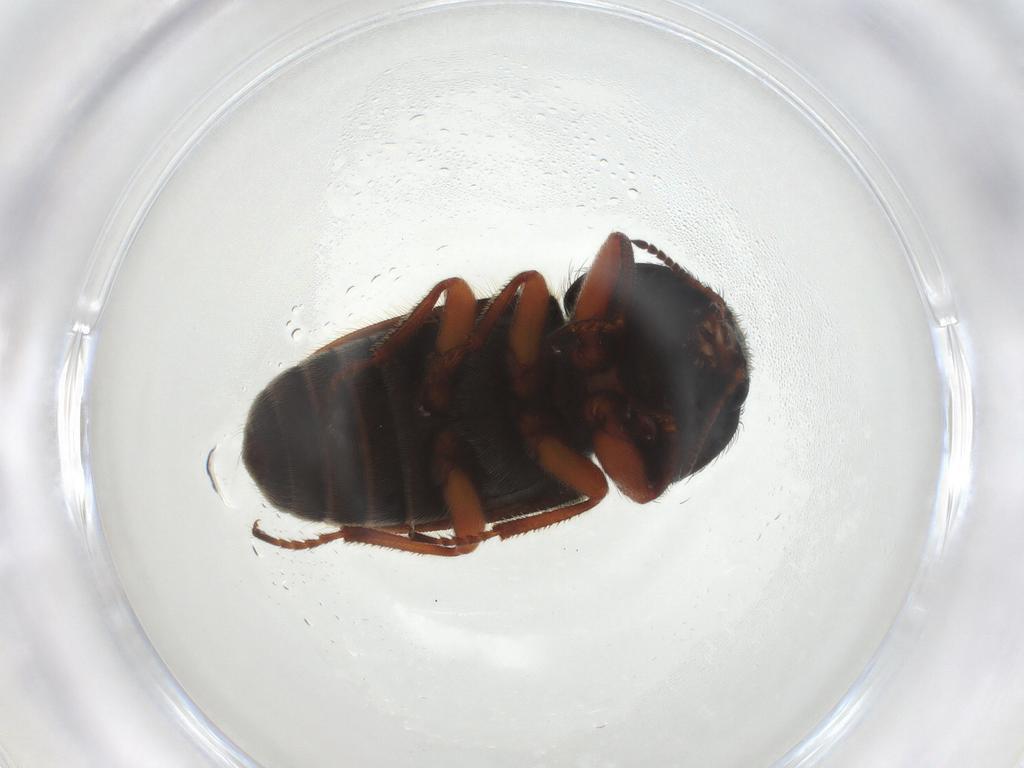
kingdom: Animalia
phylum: Arthropoda
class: Insecta
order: Coleoptera
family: Melyridae
